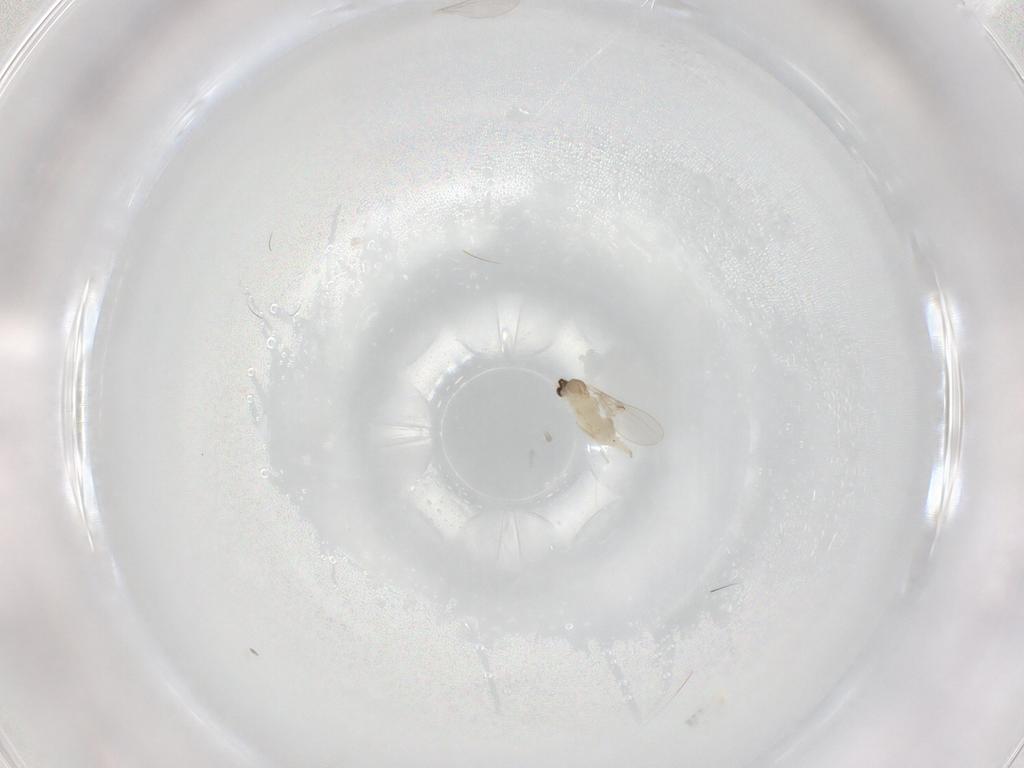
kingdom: Animalia
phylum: Arthropoda
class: Insecta
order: Diptera
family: Cecidomyiidae
